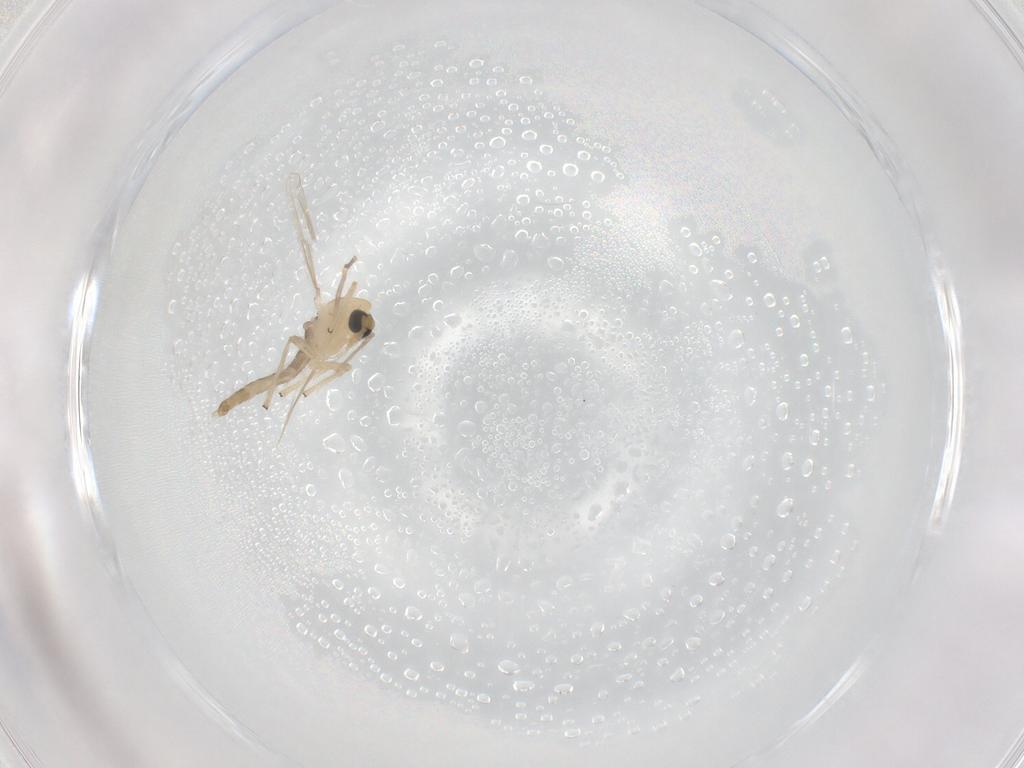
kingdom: Animalia
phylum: Arthropoda
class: Insecta
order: Diptera
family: Chironomidae
